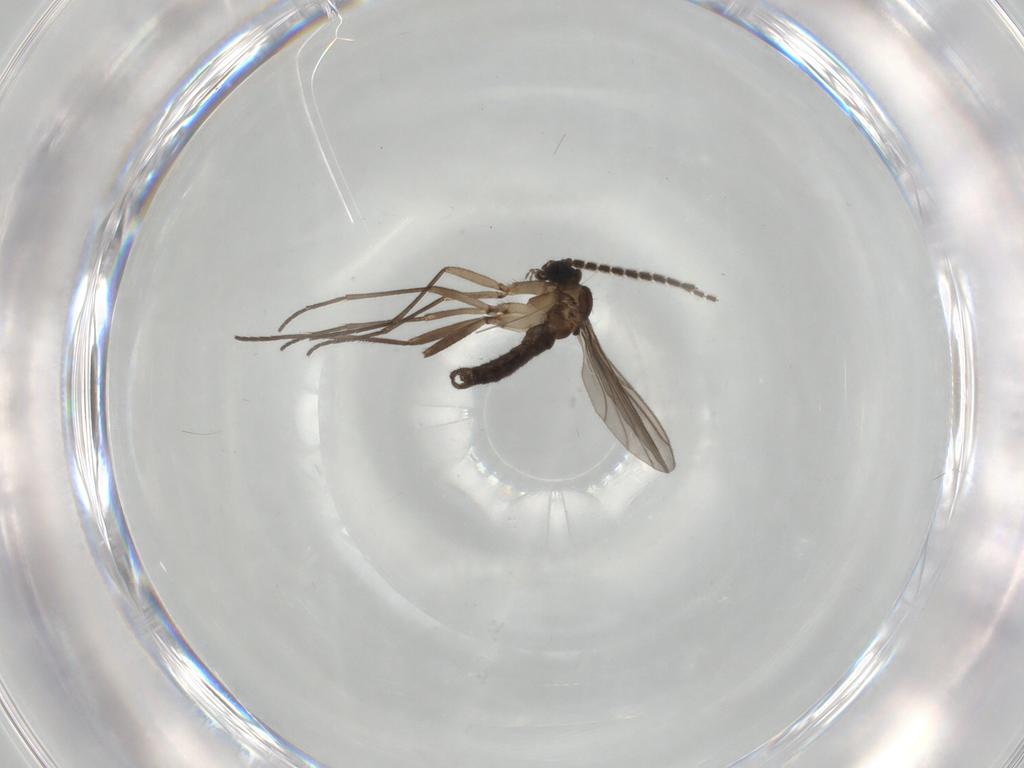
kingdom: Animalia
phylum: Arthropoda
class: Insecta
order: Diptera
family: Sciaridae
